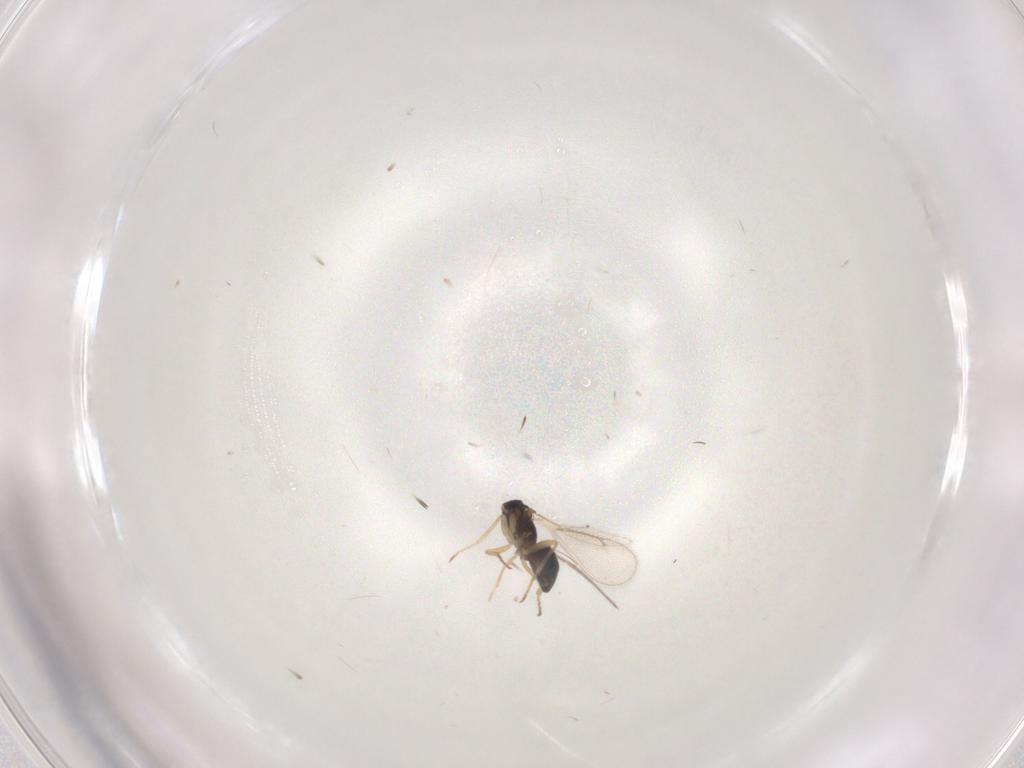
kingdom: Animalia
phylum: Arthropoda
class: Insecta
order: Hymenoptera
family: Eulophidae
